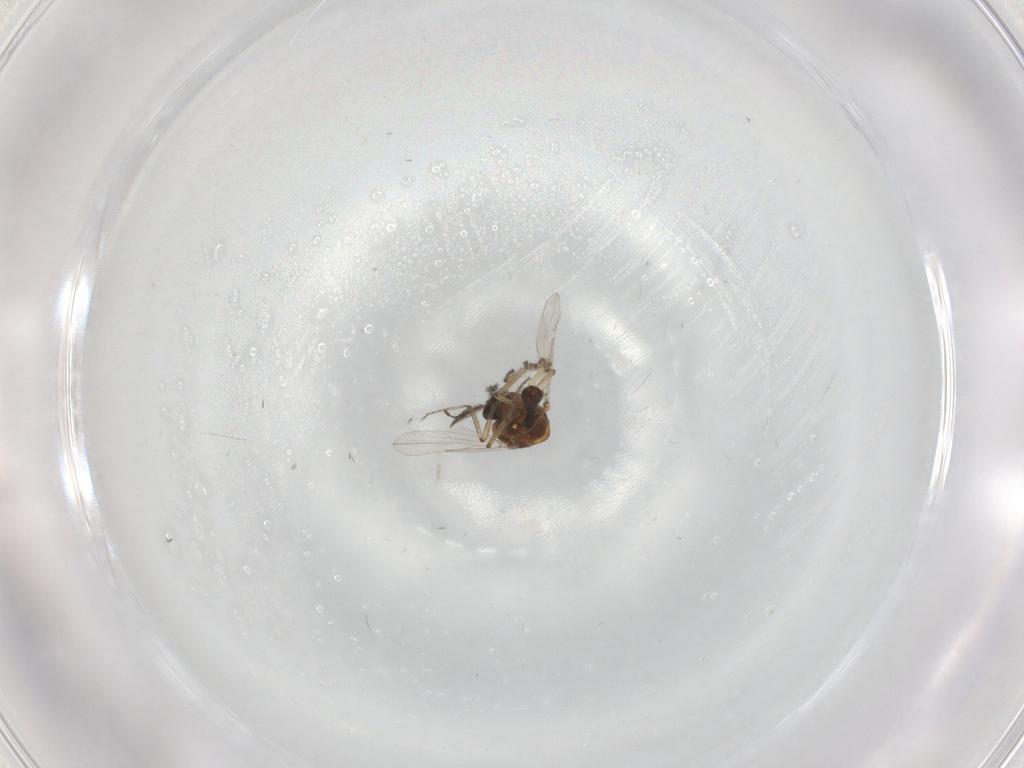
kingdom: Animalia
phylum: Arthropoda
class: Insecta
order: Diptera
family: Ceratopogonidae
